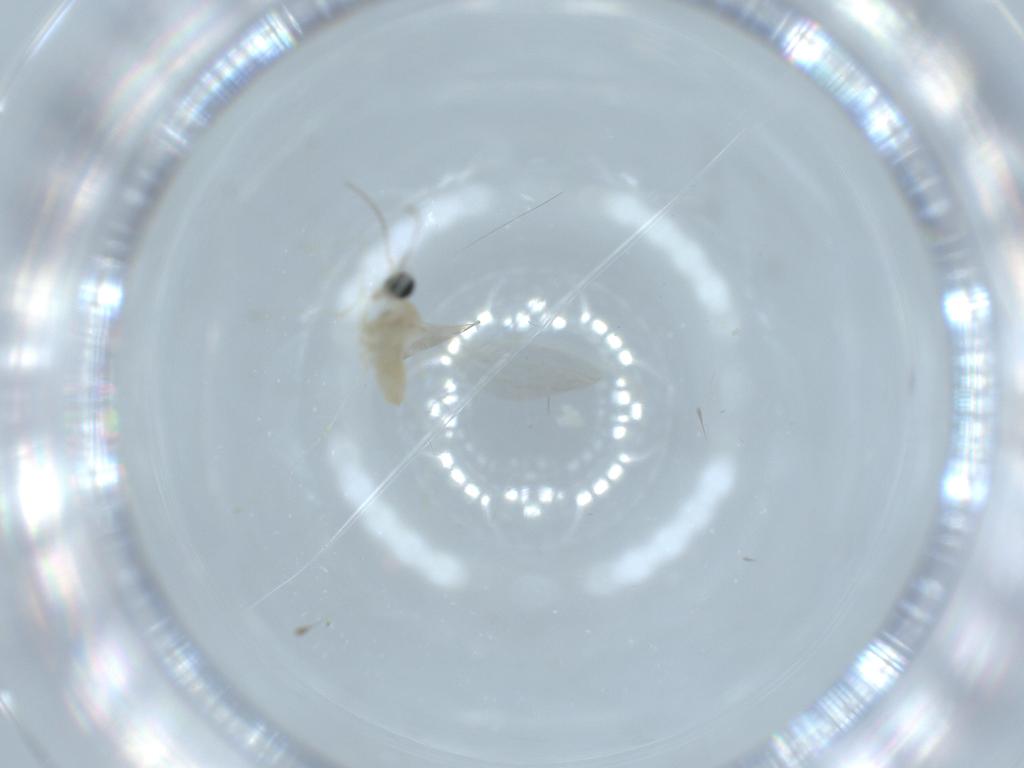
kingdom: Animalia
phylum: Arthropoda
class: Insecta
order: Diptera
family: Cecidomyiidae
